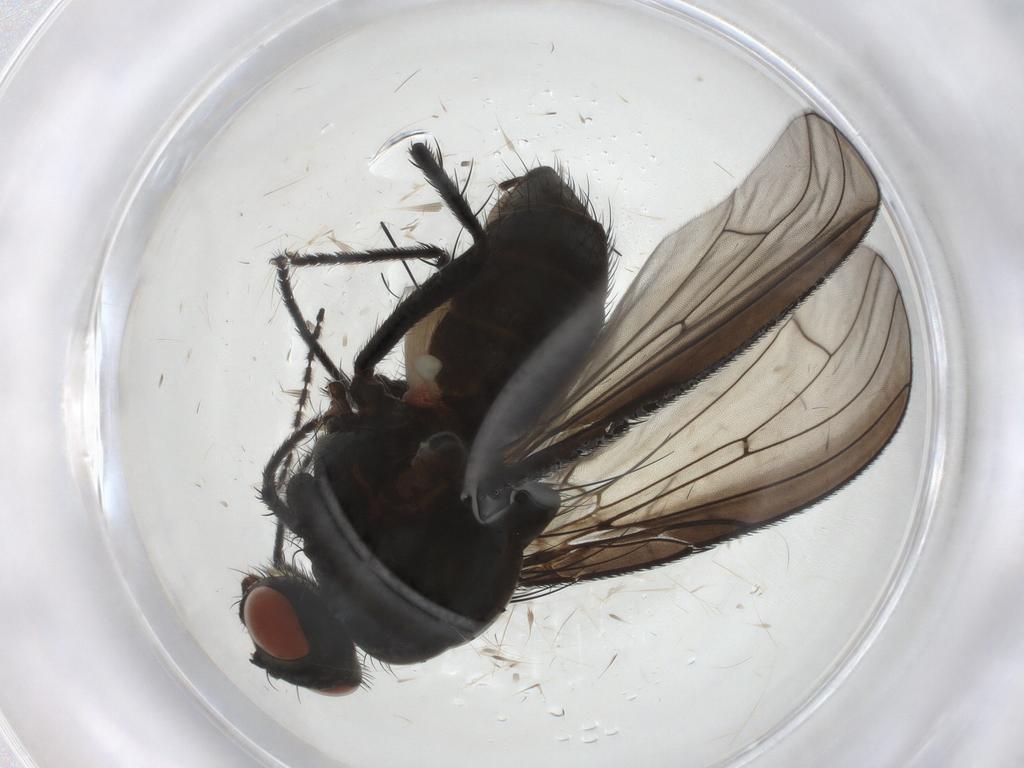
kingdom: Animalia
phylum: Arthropoda
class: Insecta
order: Diptera
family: Anthomyiidae
